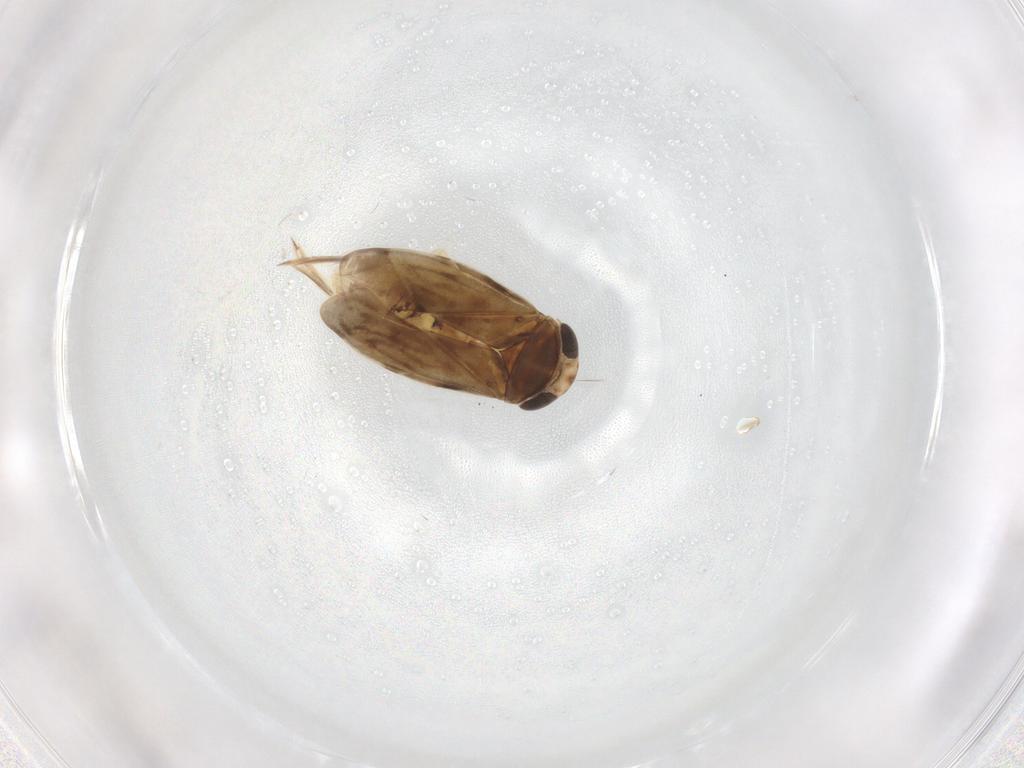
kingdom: Animalia
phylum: Arthropoda
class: Insecta
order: Hemiptera
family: Corixidae
